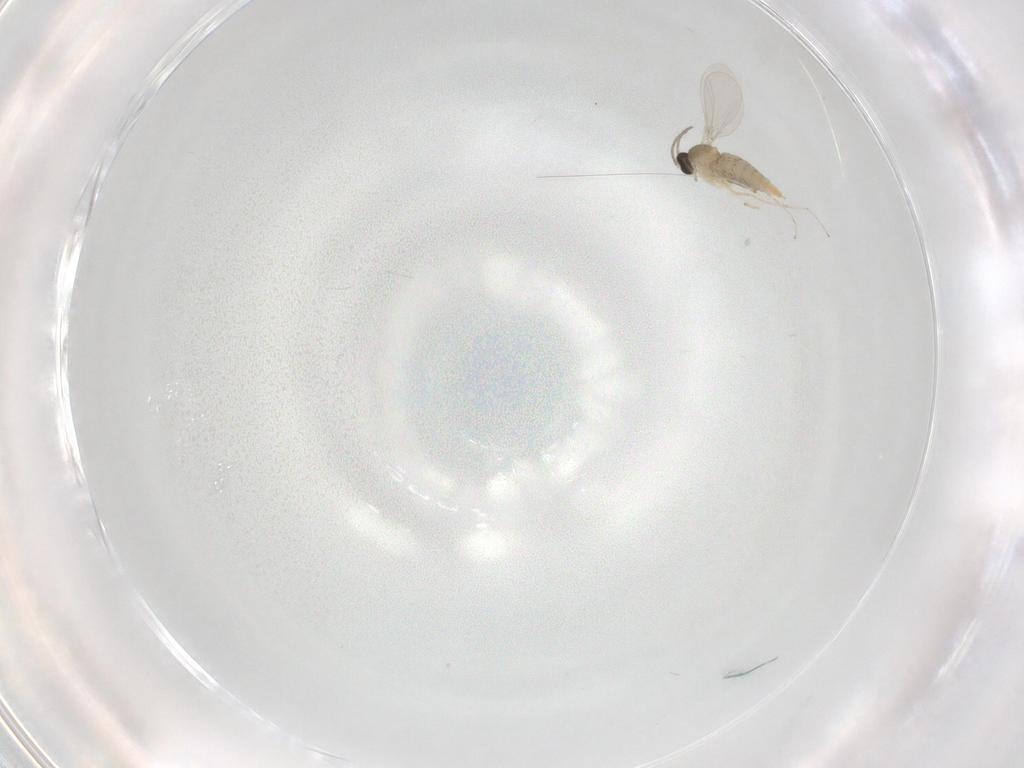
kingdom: Animalia
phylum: Arthropoda
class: Insecta
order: Diptera
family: Cecidomyiidae
